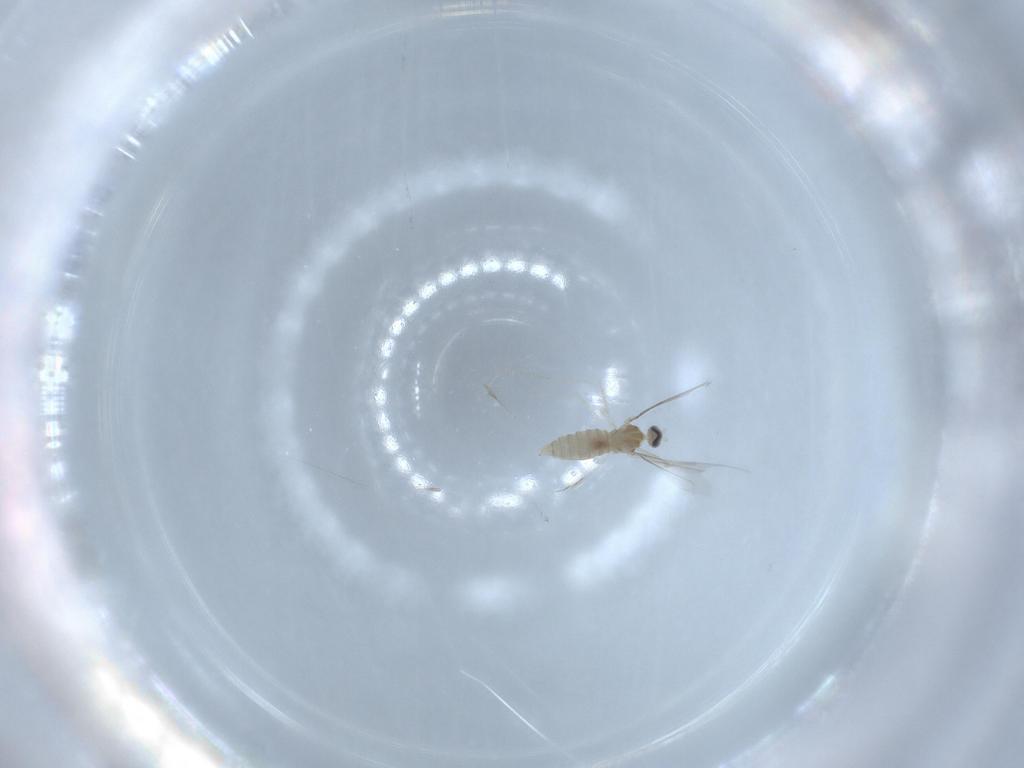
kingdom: Animalia
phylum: Arthropoda
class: Insecta
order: Diptera
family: Cecidomyiidae
